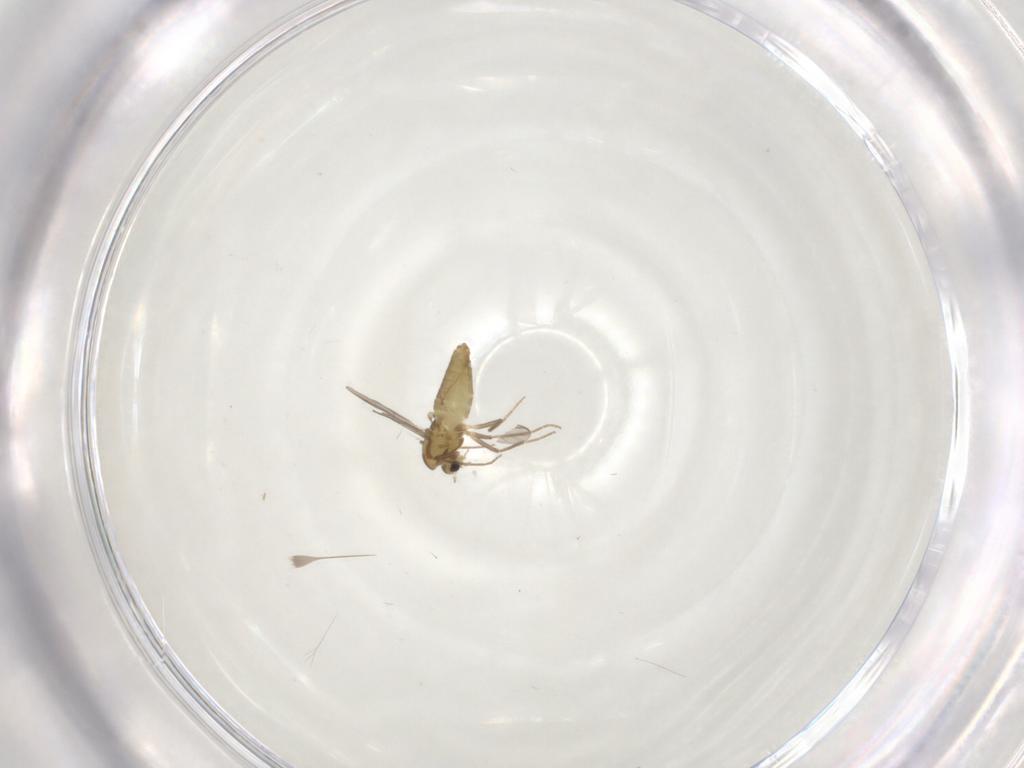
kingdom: Animalia
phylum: Arthropoda
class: Insecta
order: Diptera
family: Chironomidae
